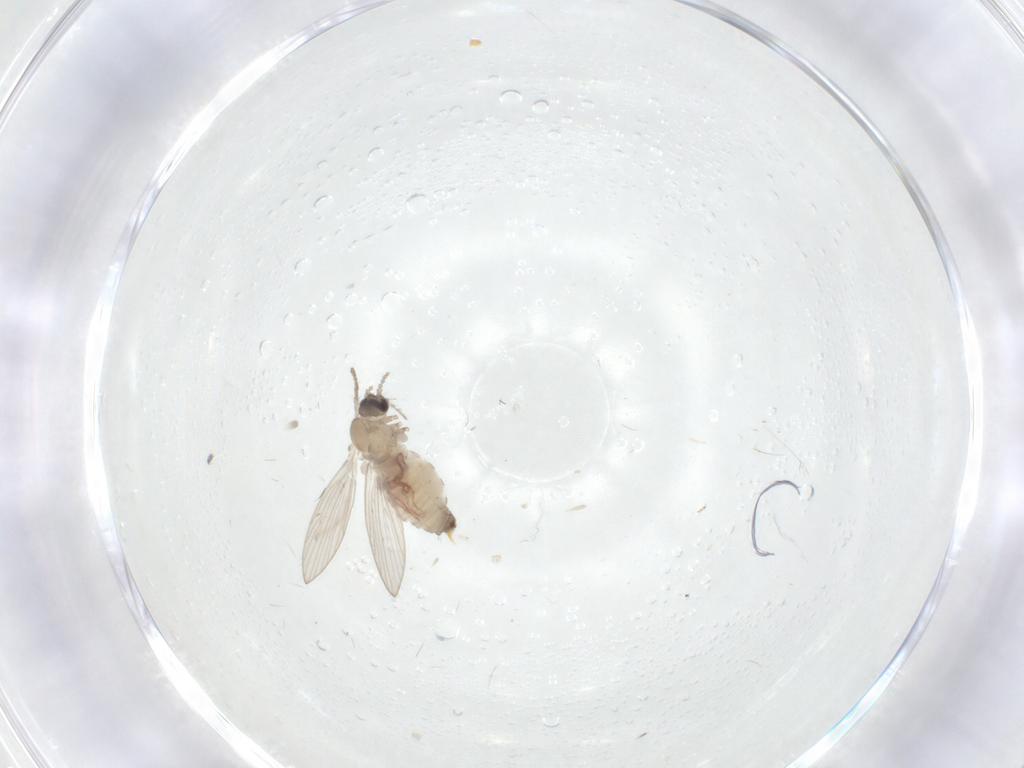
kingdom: Animalia
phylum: Arthropoda
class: Insecta
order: Diptera
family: Psychodidae
